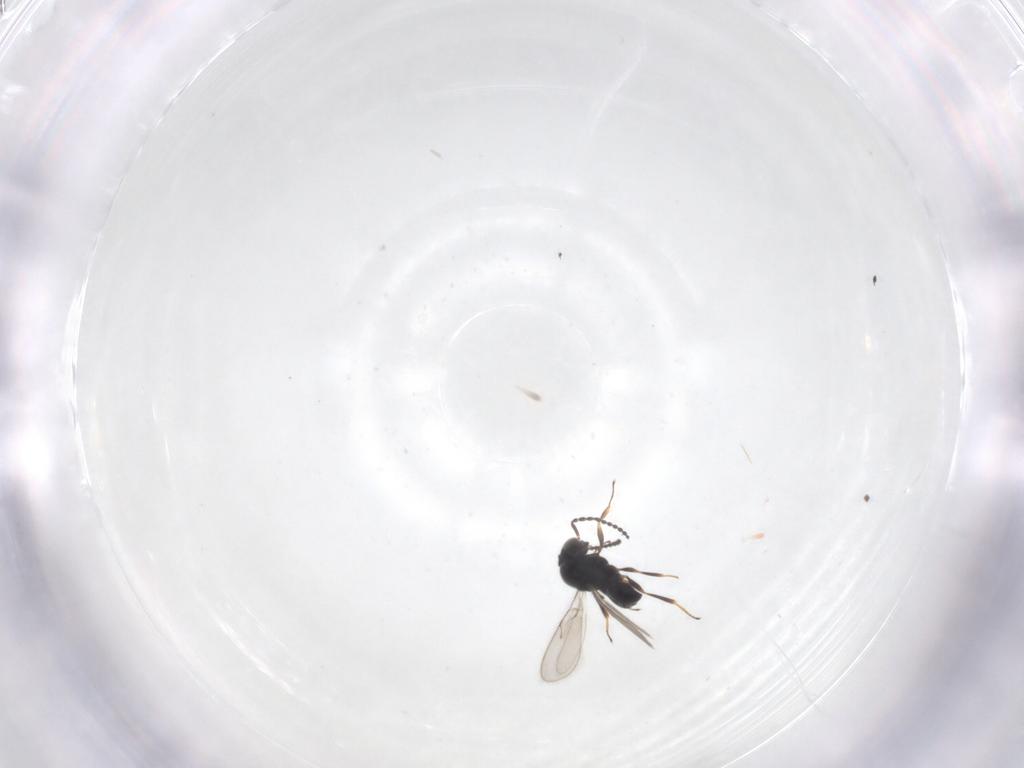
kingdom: Animalia
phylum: Arthropoda
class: Insecta
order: Hymenoptera
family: Scelionidae
